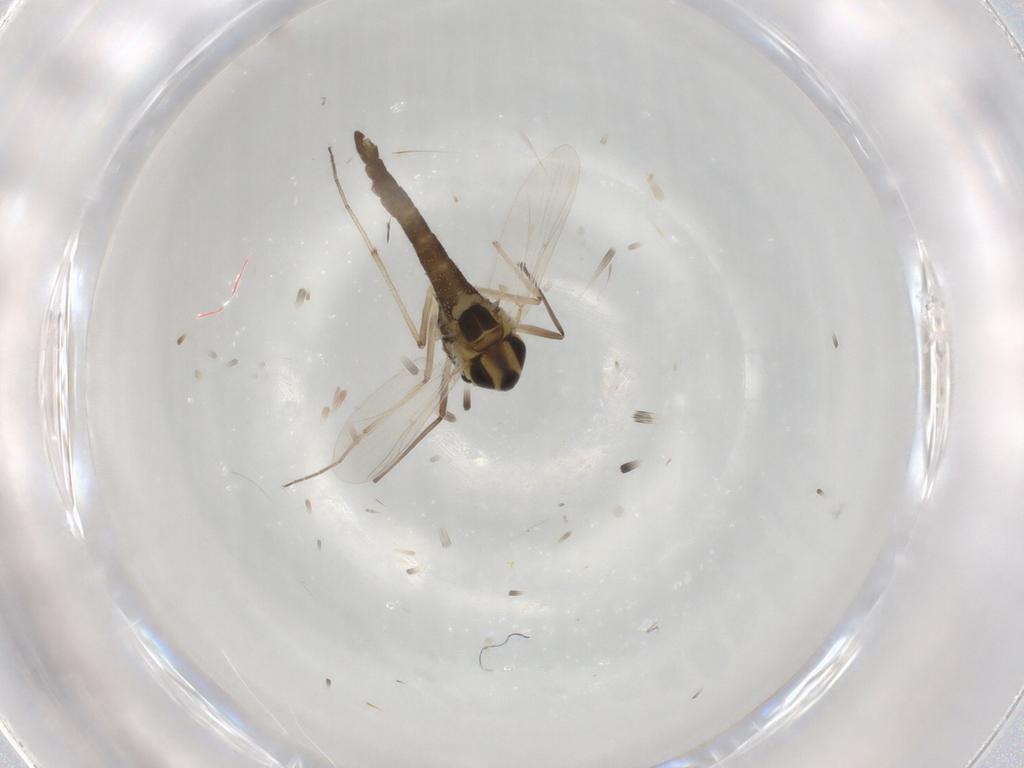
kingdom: Animalia
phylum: Arthropoda
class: Insecta
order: Diptera
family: Chironomidae
